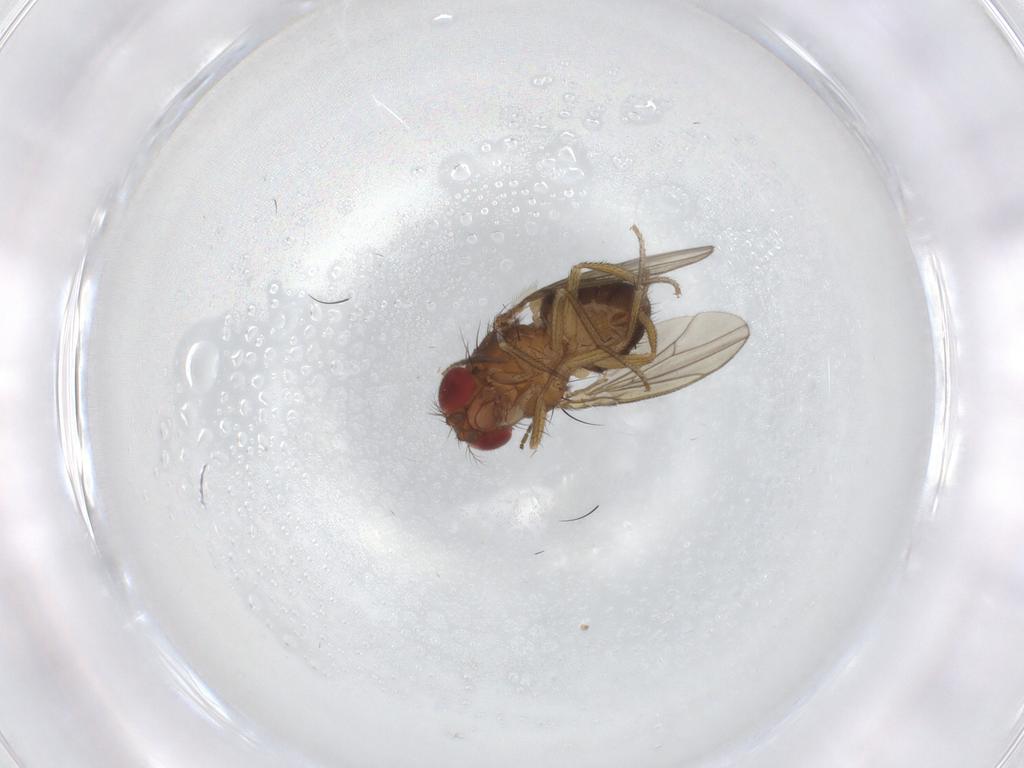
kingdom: Animalia
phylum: Arthropoda
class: Insecta
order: Diptera
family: Drosophilidae
